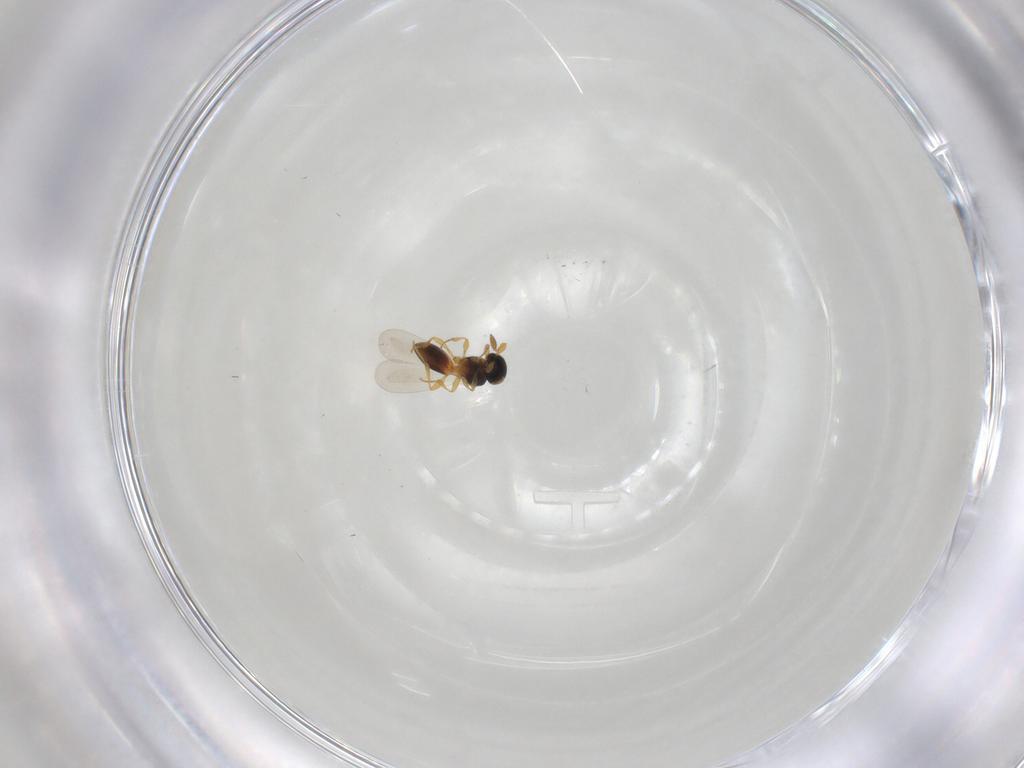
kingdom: Animalia
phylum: Arthropoda
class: Insecta
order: Hymenoptera
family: Platygastridae
